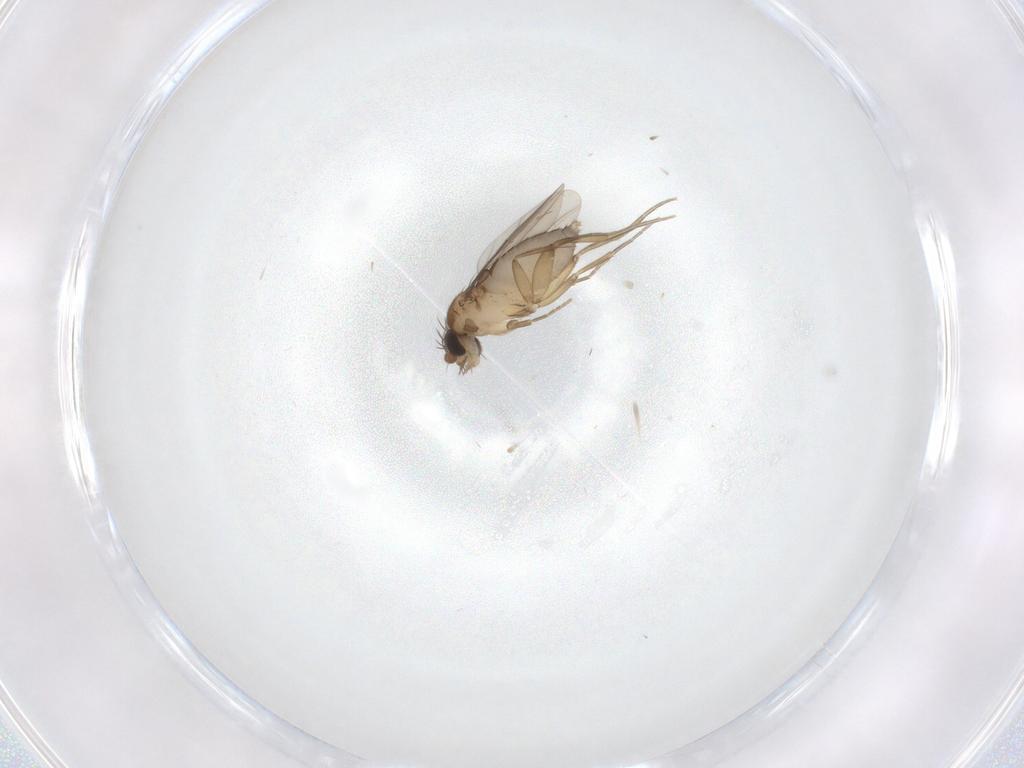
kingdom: Animalia
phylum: Arthropoda
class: Insecta
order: Diptera
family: Phoridae
